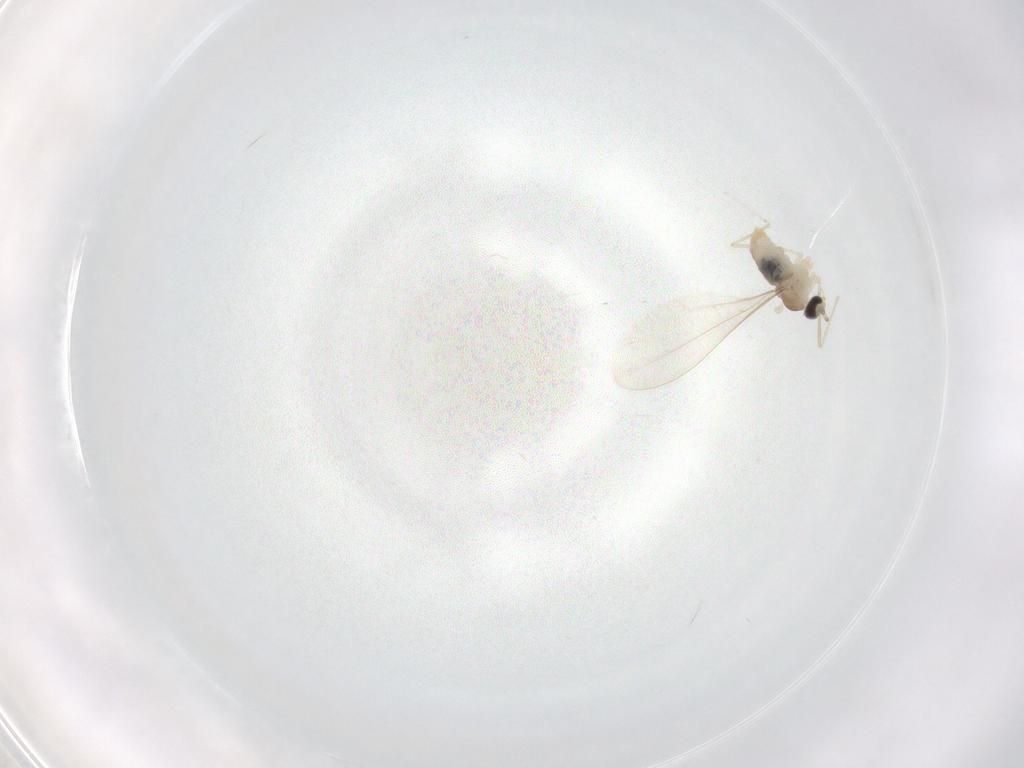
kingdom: Animalia
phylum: Arthropoda
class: Insecta
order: Diptera
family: Cecidomyiidae
